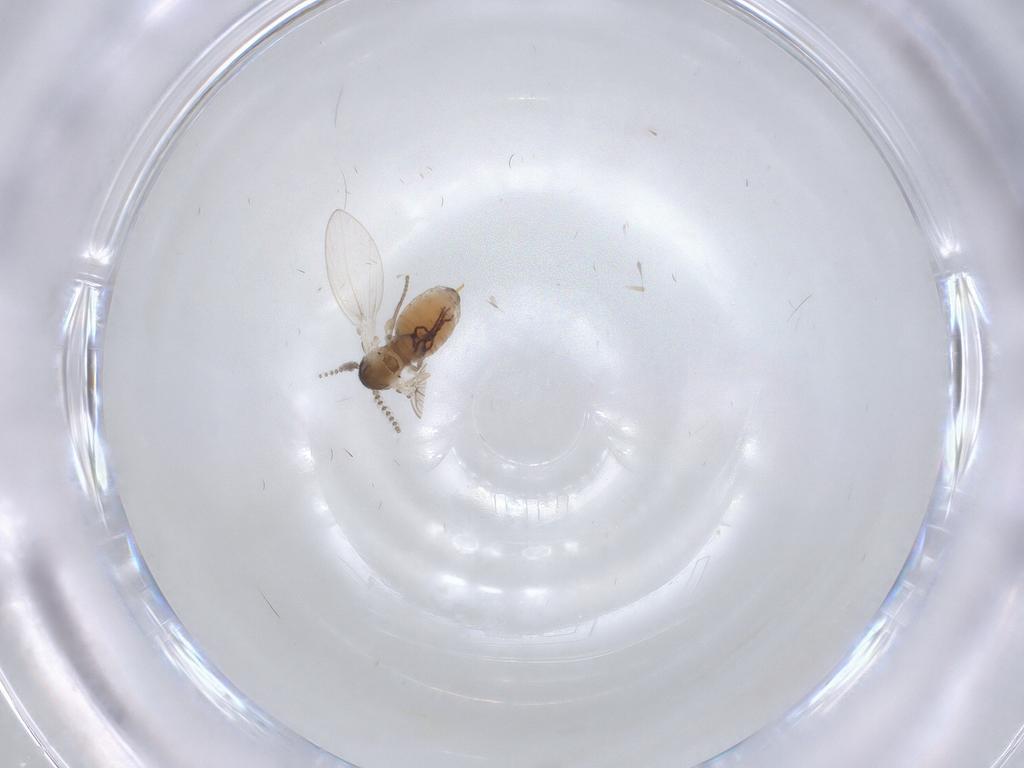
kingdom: Animalia
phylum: Arthropoda
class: Insecta
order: Diptera
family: Psychodidae
